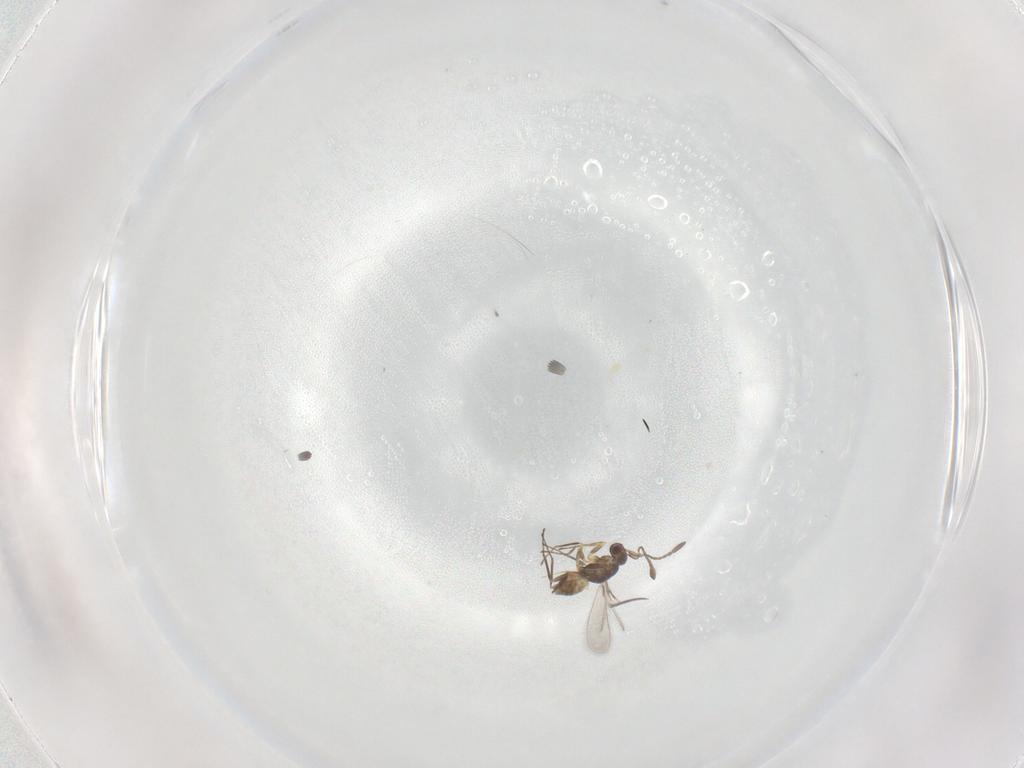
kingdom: Animalia
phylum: Arthropoda
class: Insecta
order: Hymenoptera
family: Mymaridae
